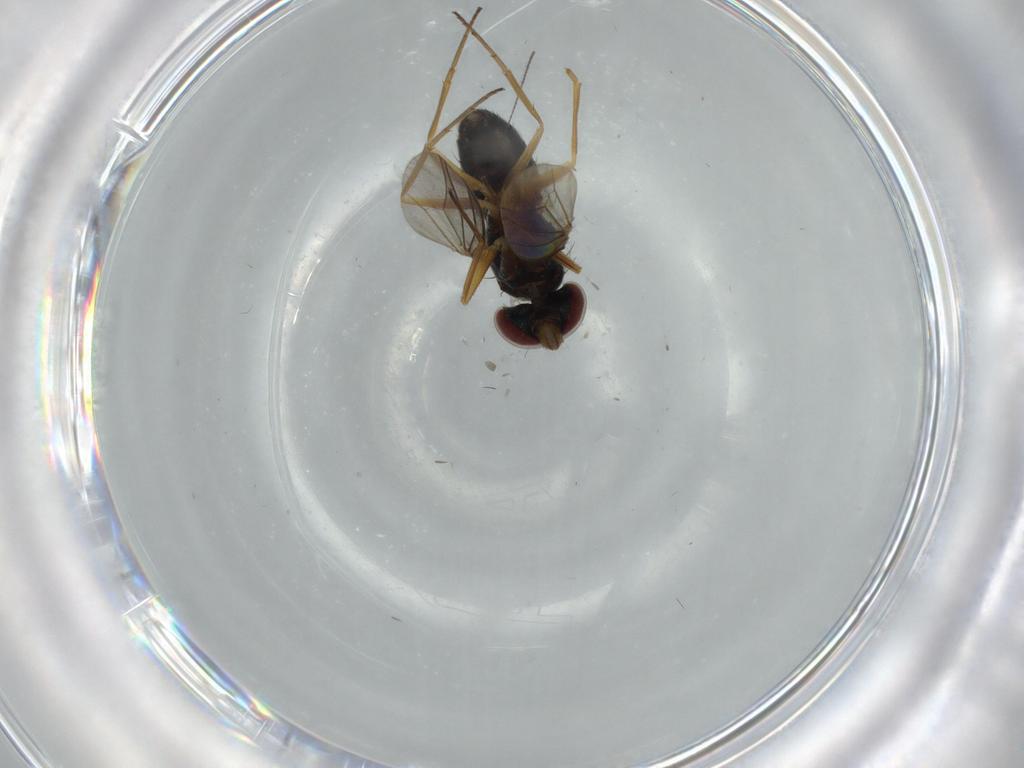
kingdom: Animalia
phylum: Arthropoda
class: Insecta
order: Diptera
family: Dolichopodidae
